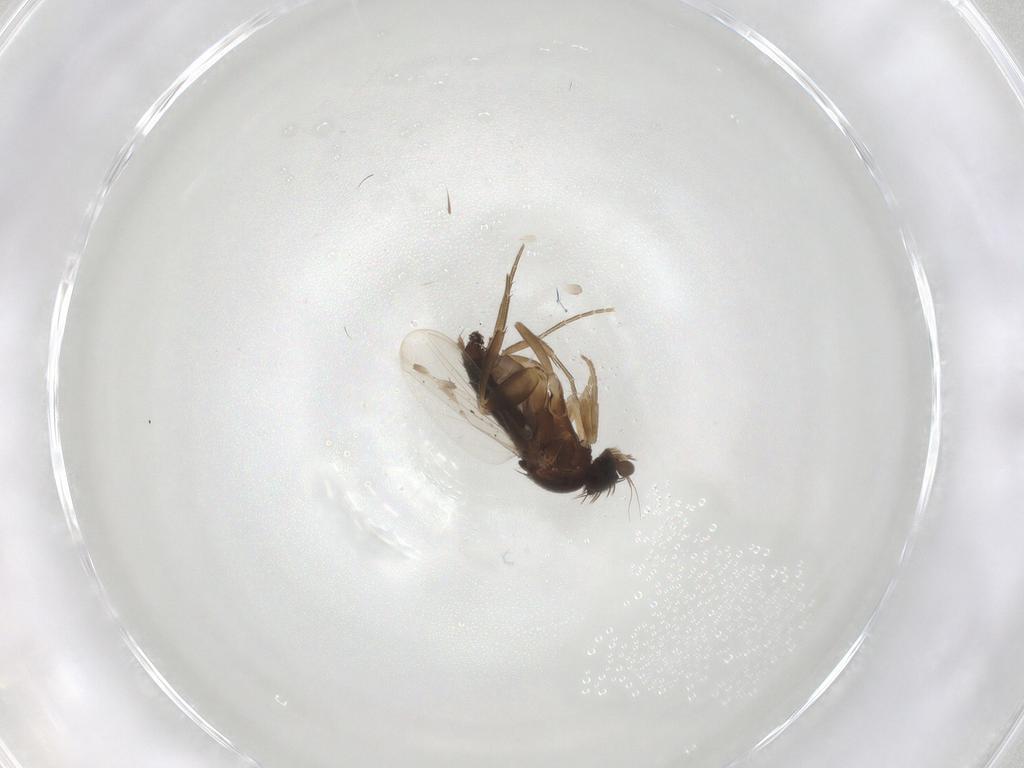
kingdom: Animalia
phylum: Arthropoda
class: Insecta
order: Diptera
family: Phoridae
